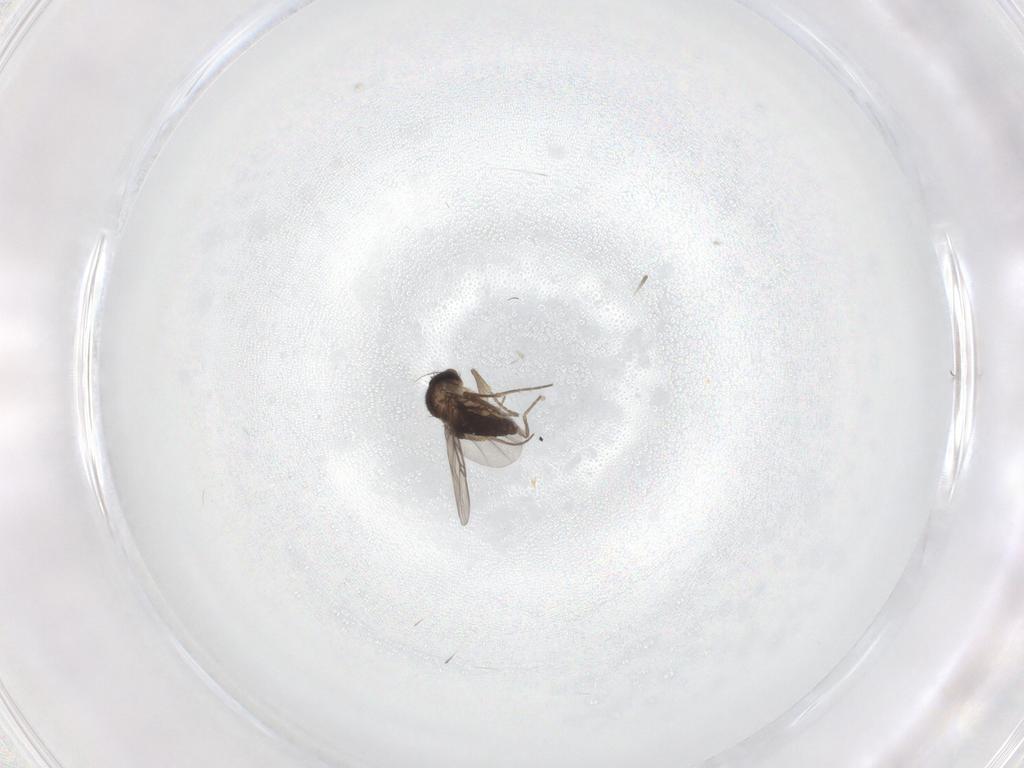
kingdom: Animalia
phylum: Arthropoda
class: Insecta
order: Diptera
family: Phoridae
